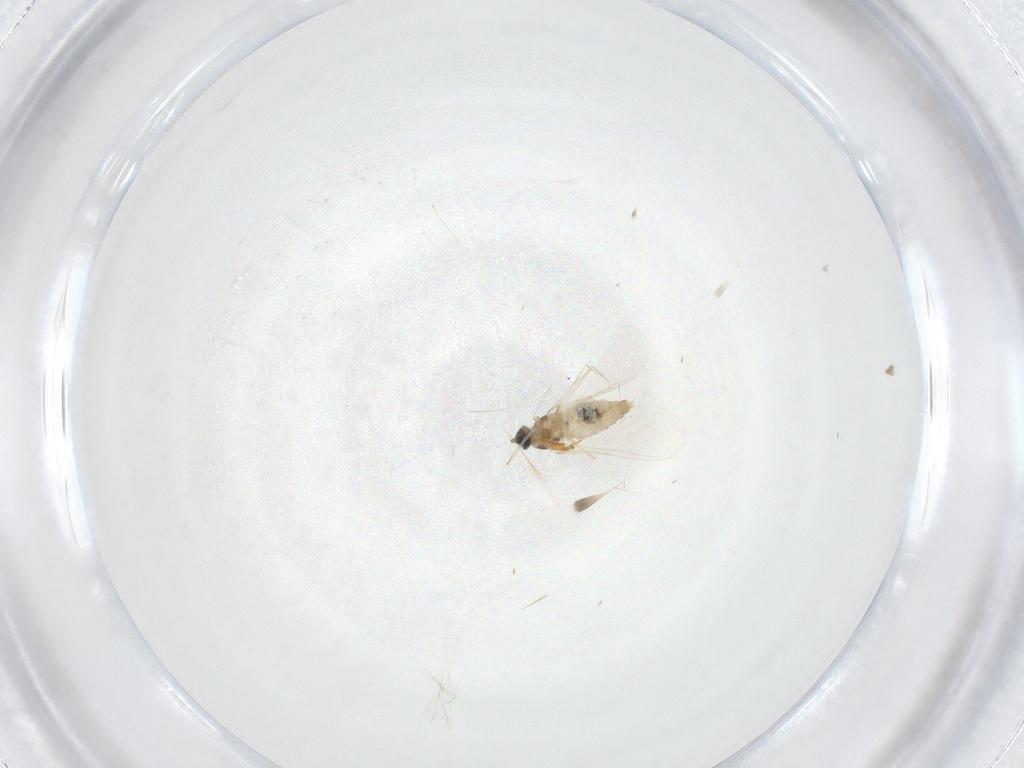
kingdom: Animalia
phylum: Arthropoda
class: Insecta
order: Diptera
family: Cecidomyiidae
